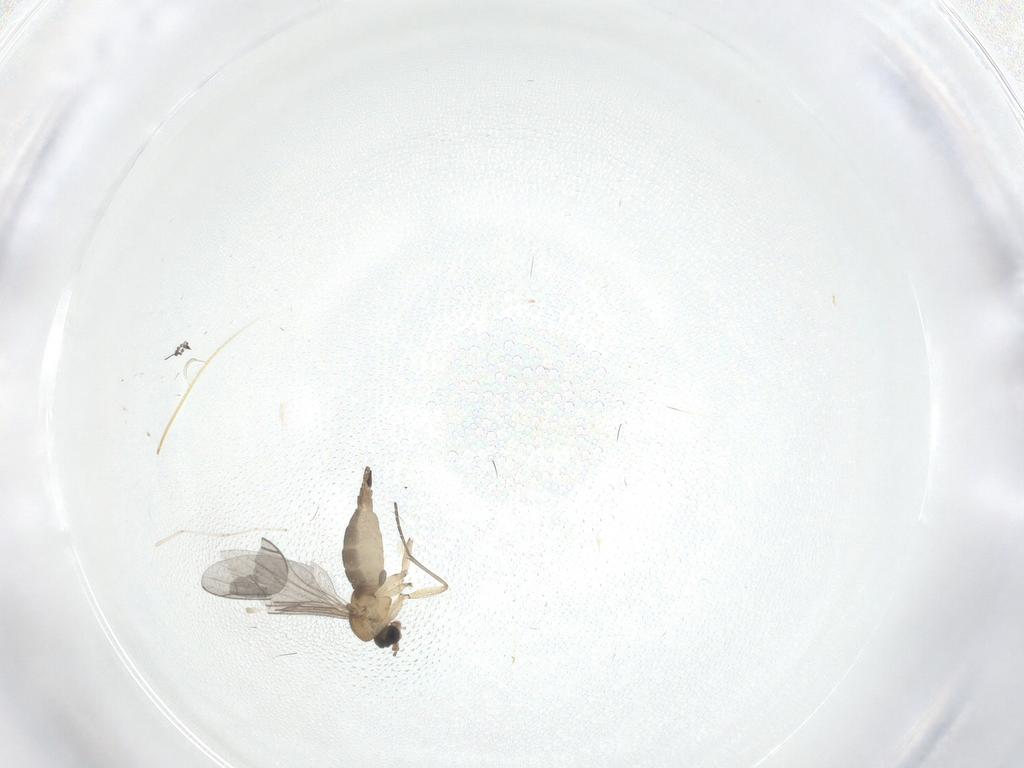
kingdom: Animalia
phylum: Arthropoda
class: Insecta
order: Diptera
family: Sciaridae
